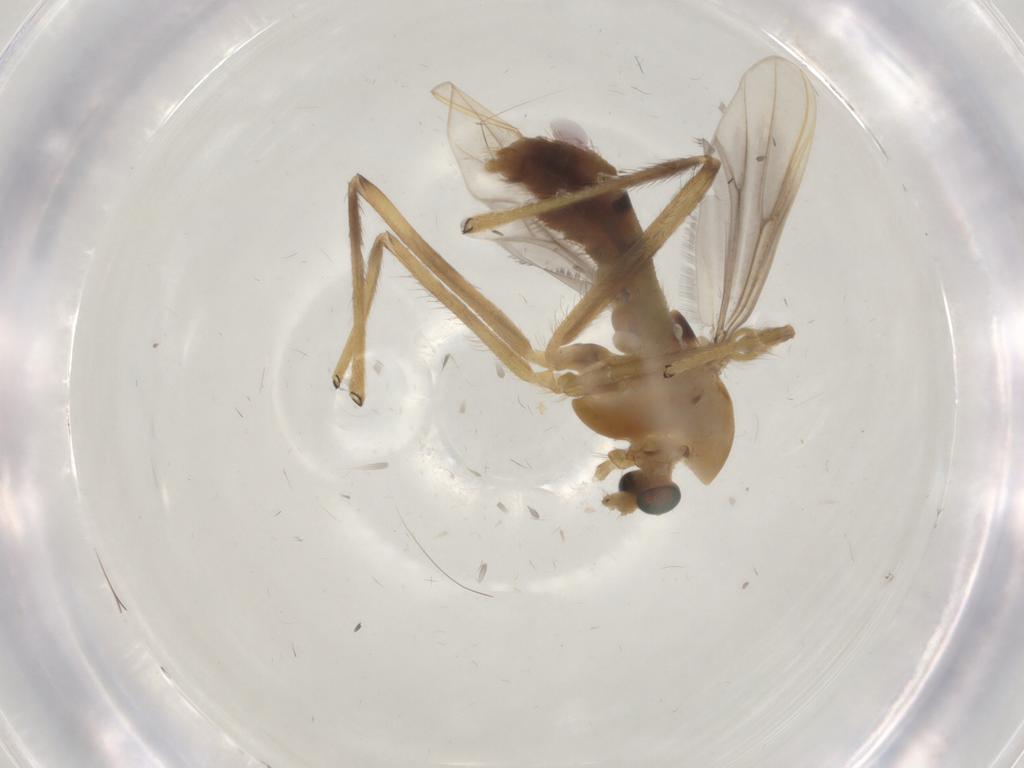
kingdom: Animalia
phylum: Arthropoda
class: Insecta
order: Diptera
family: Chironomidae
